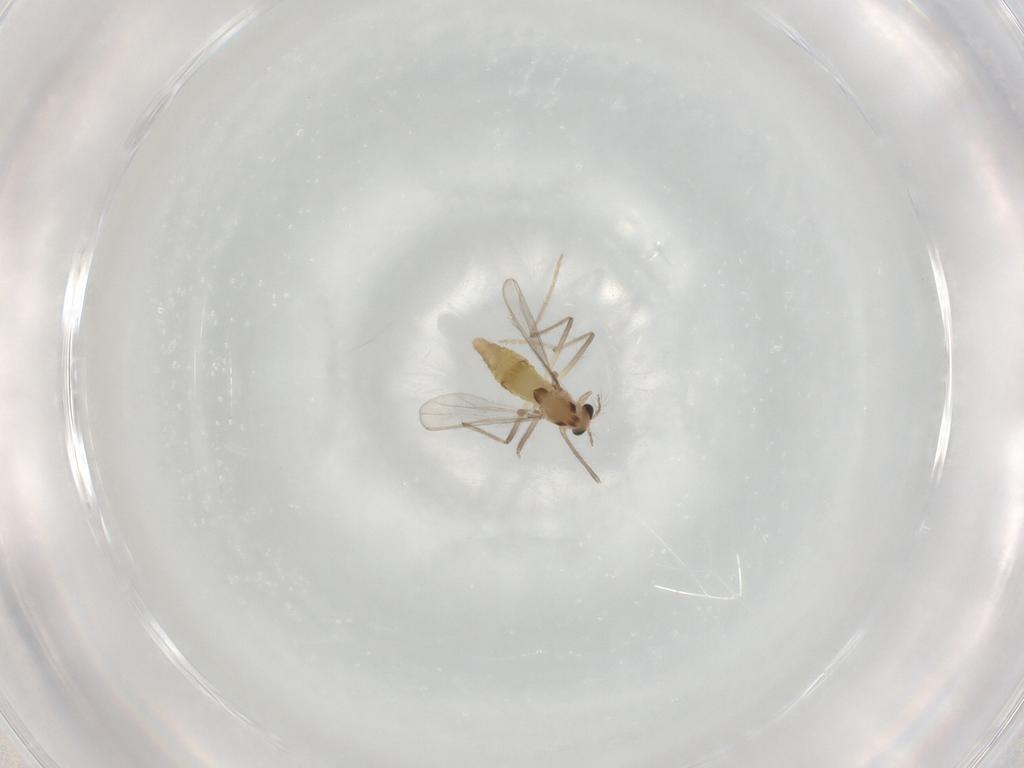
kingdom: Animalia
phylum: Arthropoda
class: Insecta
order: Diptera
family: Chironomidae
